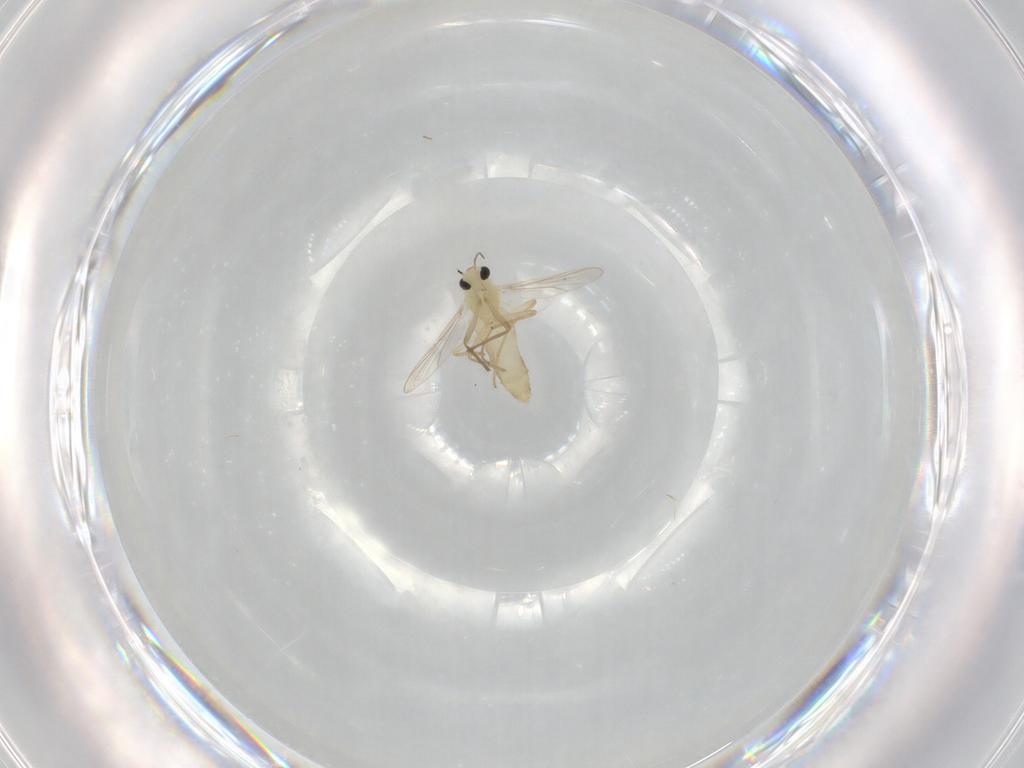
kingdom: Animalia
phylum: Arthropoda
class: Insecta
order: Diptera
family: Chironomidae
